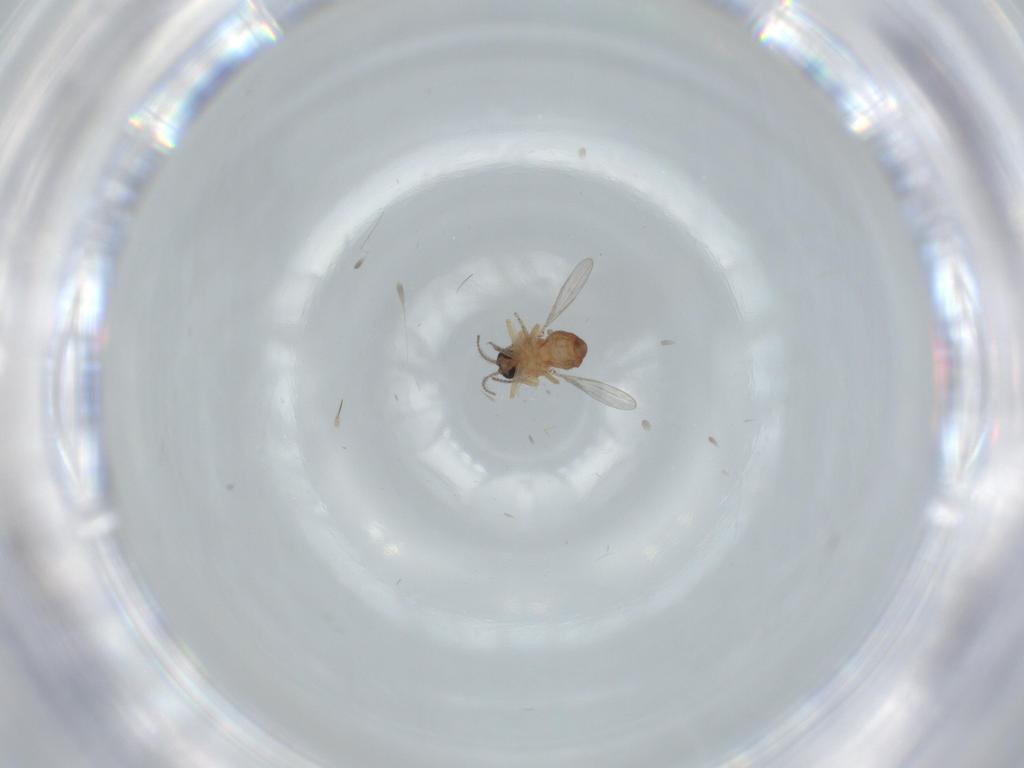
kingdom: Animalia
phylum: Arthropoda
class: Insecta
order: Diptera
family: Ceratopogonidae
